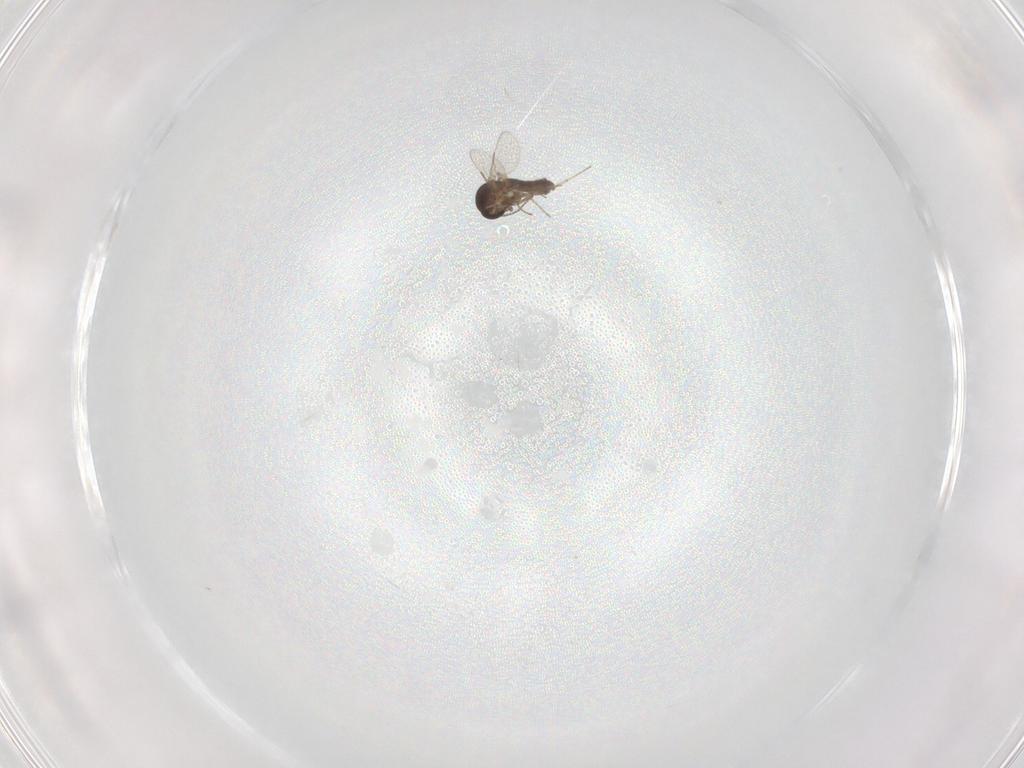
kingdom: Animalia
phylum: Arthropoda
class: Insecta
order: Diptera
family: Ceratopogonidae
